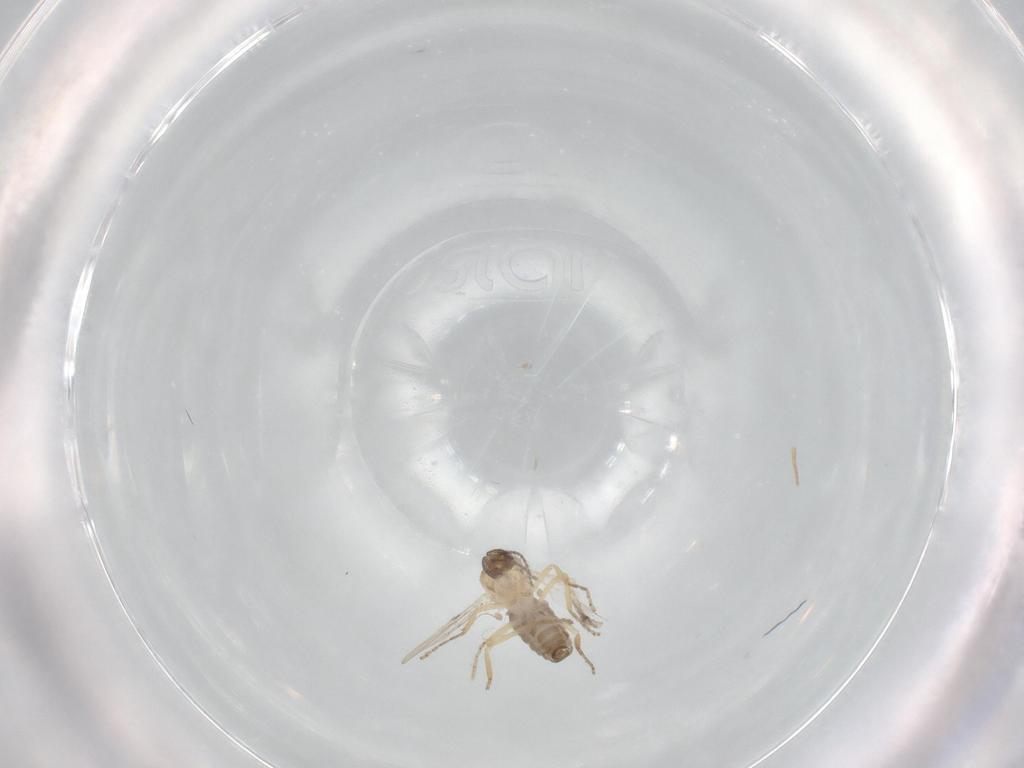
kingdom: Animalia
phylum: Arthropoda
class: Insecta
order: Diptera
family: Ceratopogonidae
